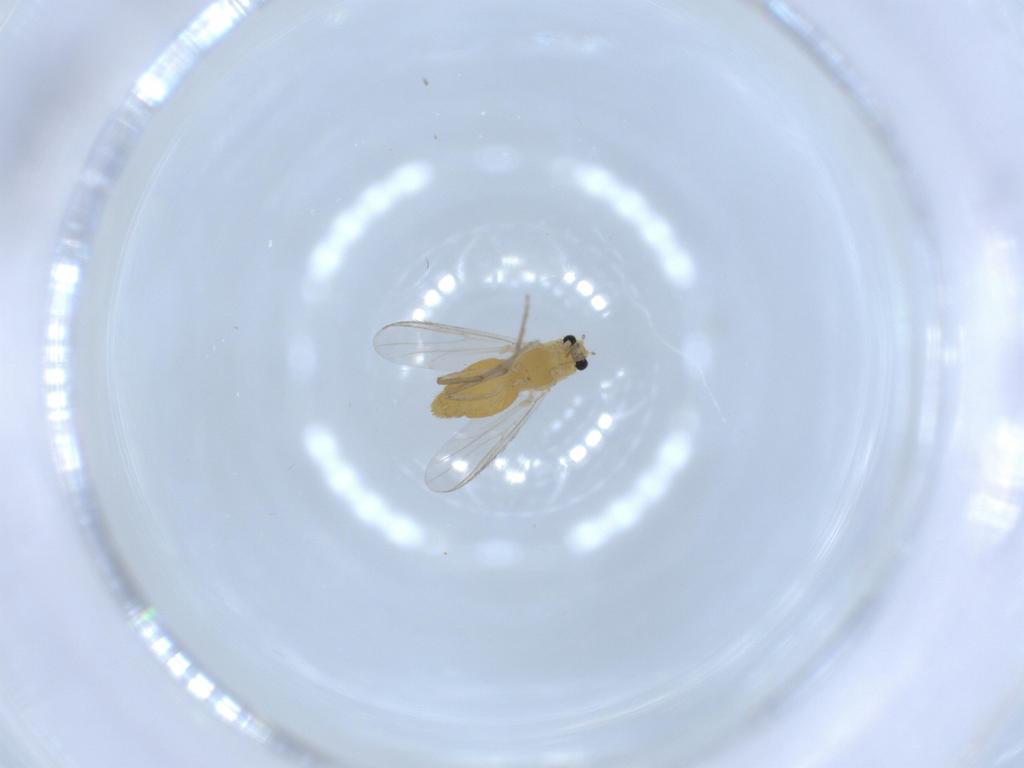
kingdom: Animalia
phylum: Arthropoda
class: Insecta
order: Diptera
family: Chironomidae
